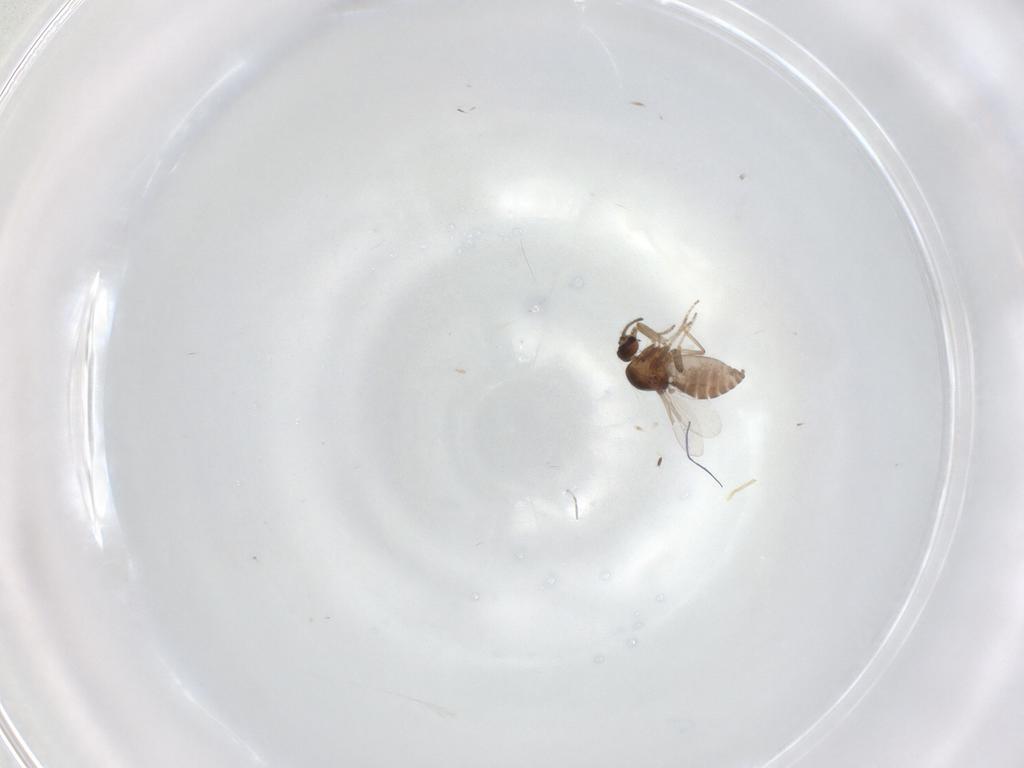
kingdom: Animalia
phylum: Arthropoda
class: Insecta
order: Diptera
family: Ceratopogonidae
